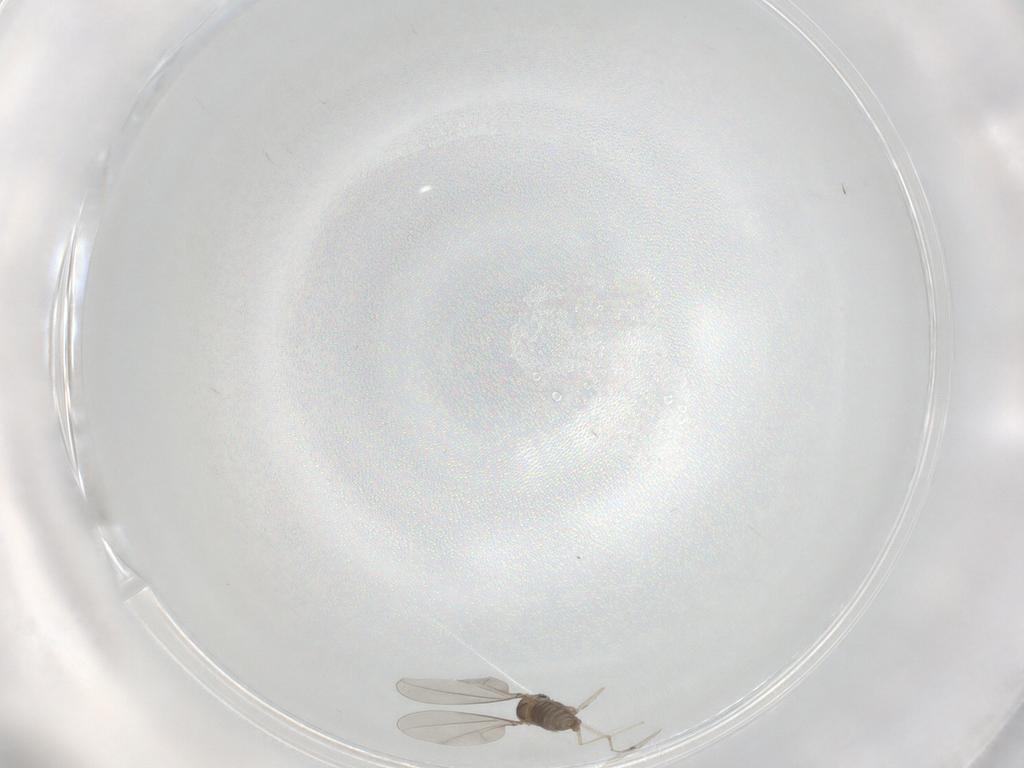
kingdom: Animalia
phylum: Arthropoda
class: Insecta
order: Diptera
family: Cecidomyiidae
